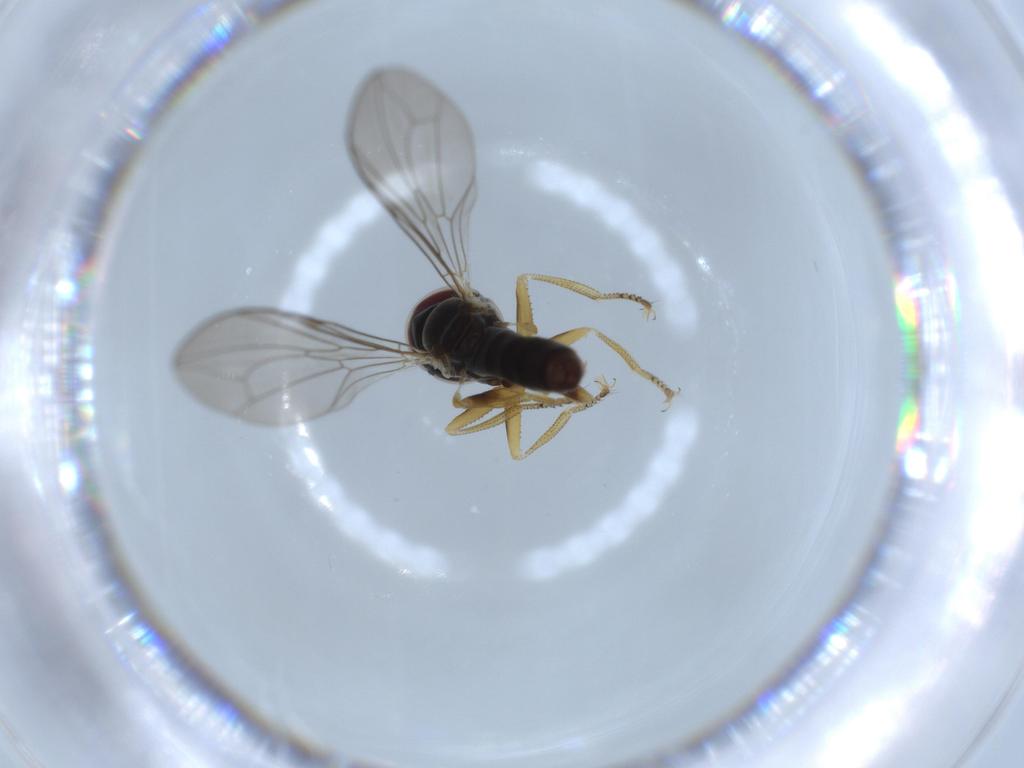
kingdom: Animalia
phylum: Arthropoda
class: Insecta
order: Diptera
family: Pipunculidae
